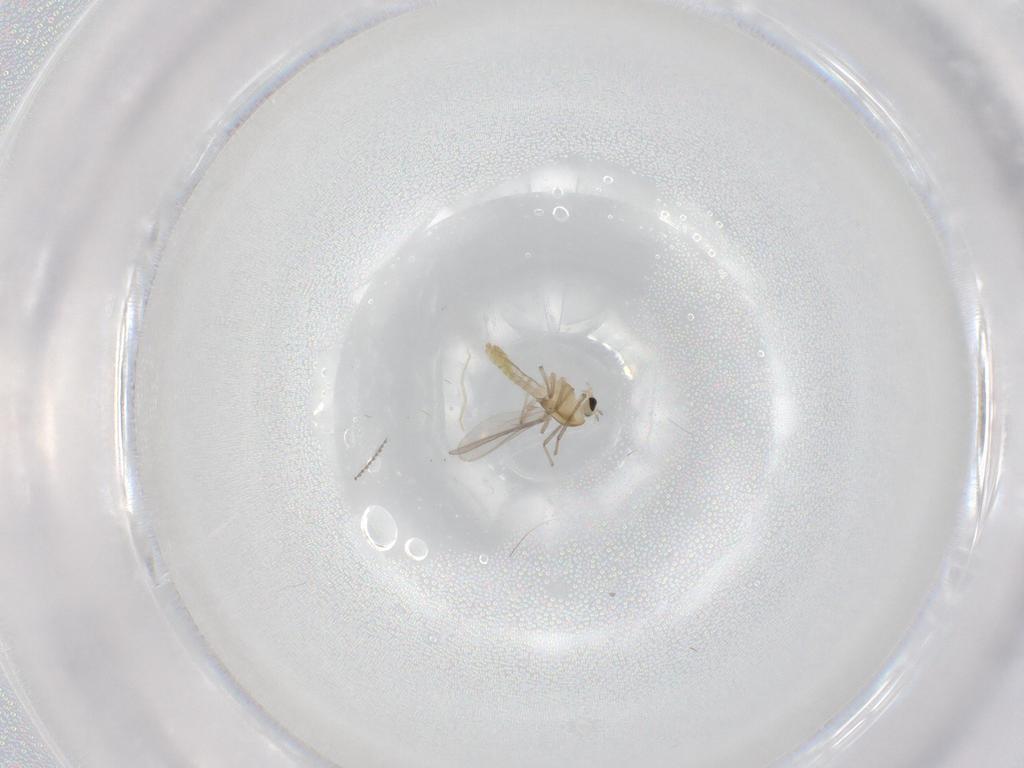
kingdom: Animalia
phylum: Arthropoda
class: Insecta
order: Diptera
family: Chironomidae
